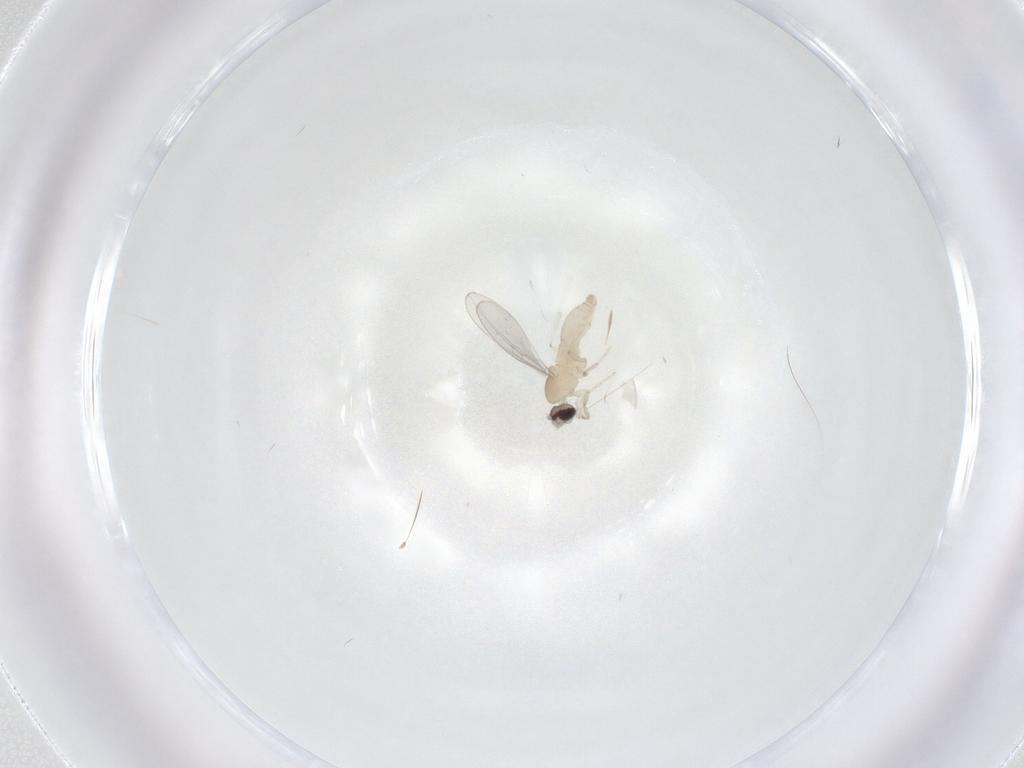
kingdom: Animalia
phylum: Arthropoda
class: Insecta
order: Diptera
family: Cecidomyiidae
